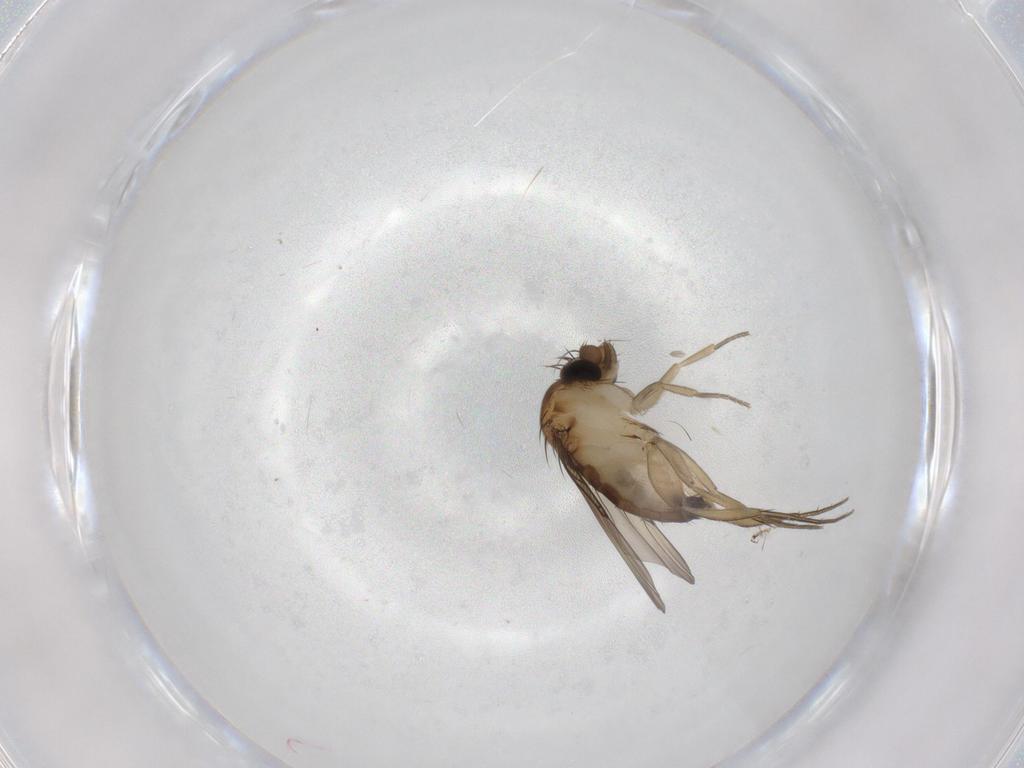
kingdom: Animalia
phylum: Arthropoda
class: Insecta
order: Diptera
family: Phoridae
